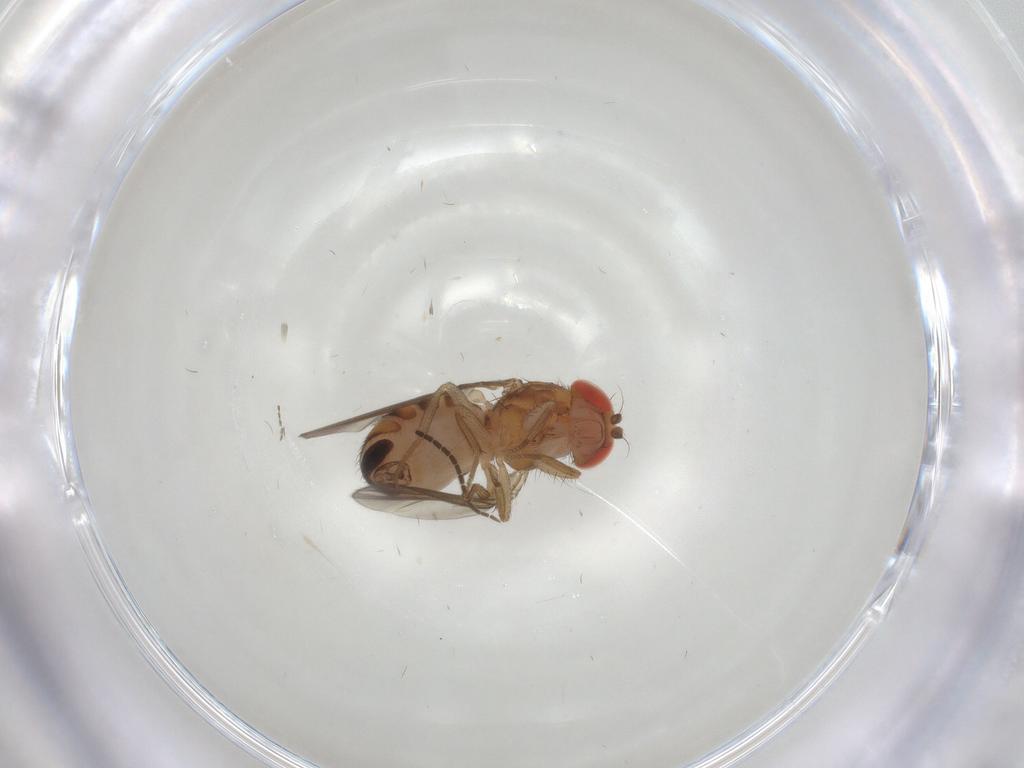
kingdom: Animalia
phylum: Arthropoda
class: Insecta
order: Diptera
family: Drosophilidae
